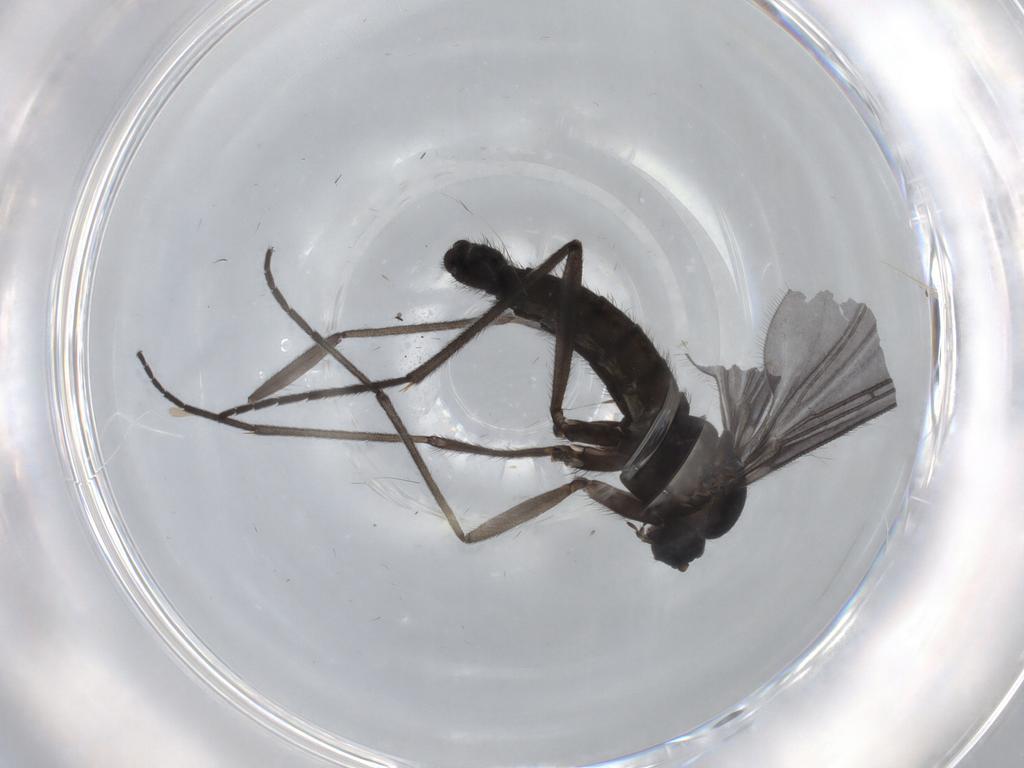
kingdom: Animalia
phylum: Arthropoda
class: Insecta
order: Diptera
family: Sciaridae
